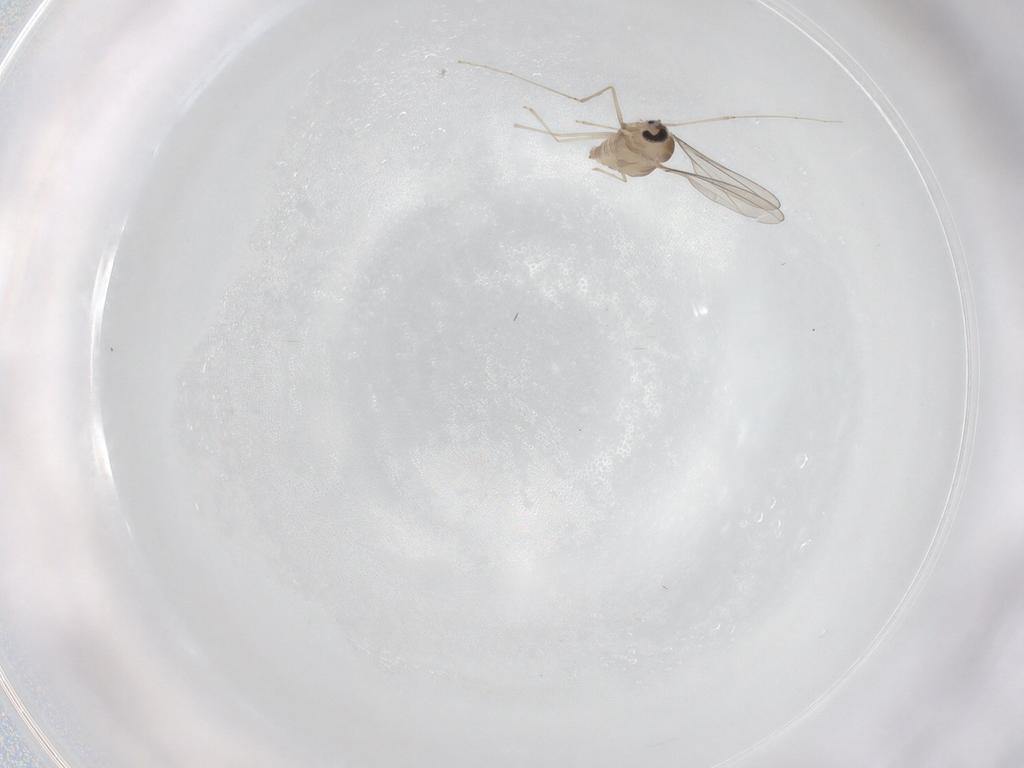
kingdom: Animalia
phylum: Arthropoda
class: Insecta
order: Diptera
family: Cecidomyiidae
